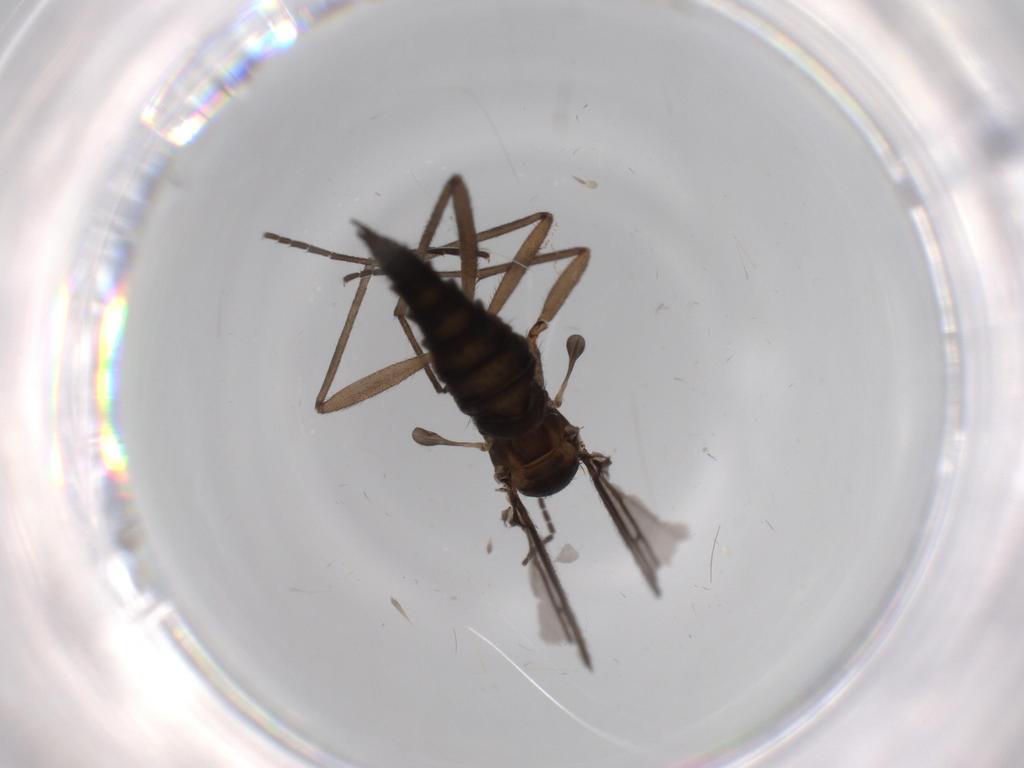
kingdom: Animalia
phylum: Arthropoda
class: Insecta
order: Diptera
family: Sciaridae
